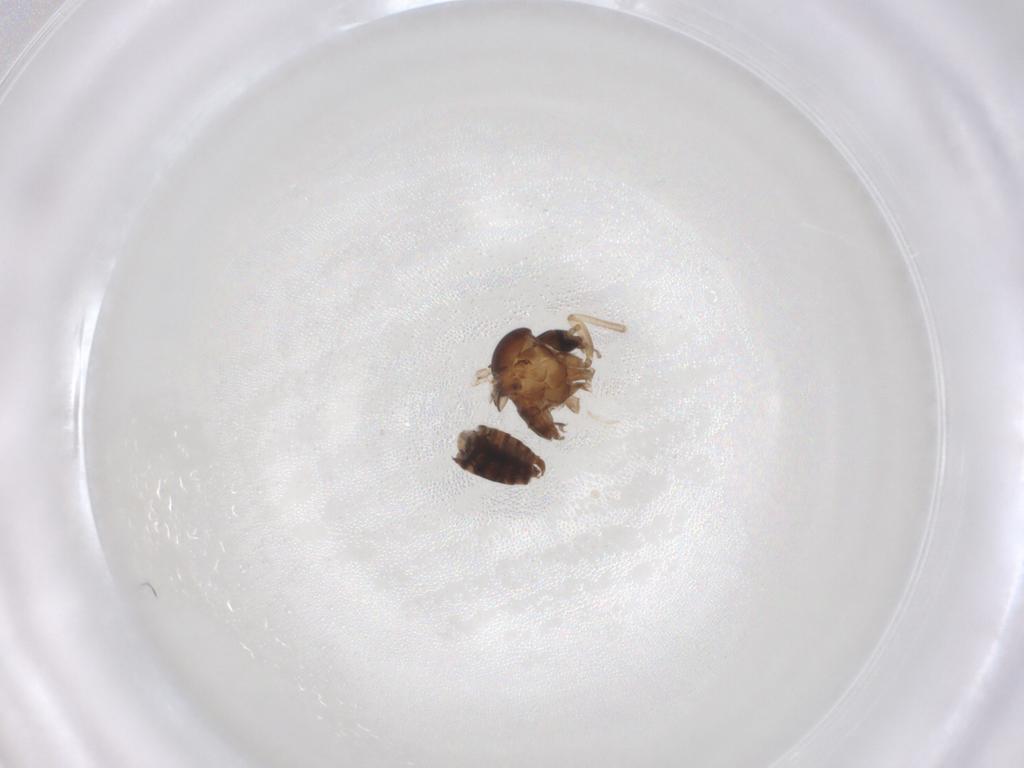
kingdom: Animalia
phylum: Arthropoda
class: Insecta
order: Diptera
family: Psychodidae
